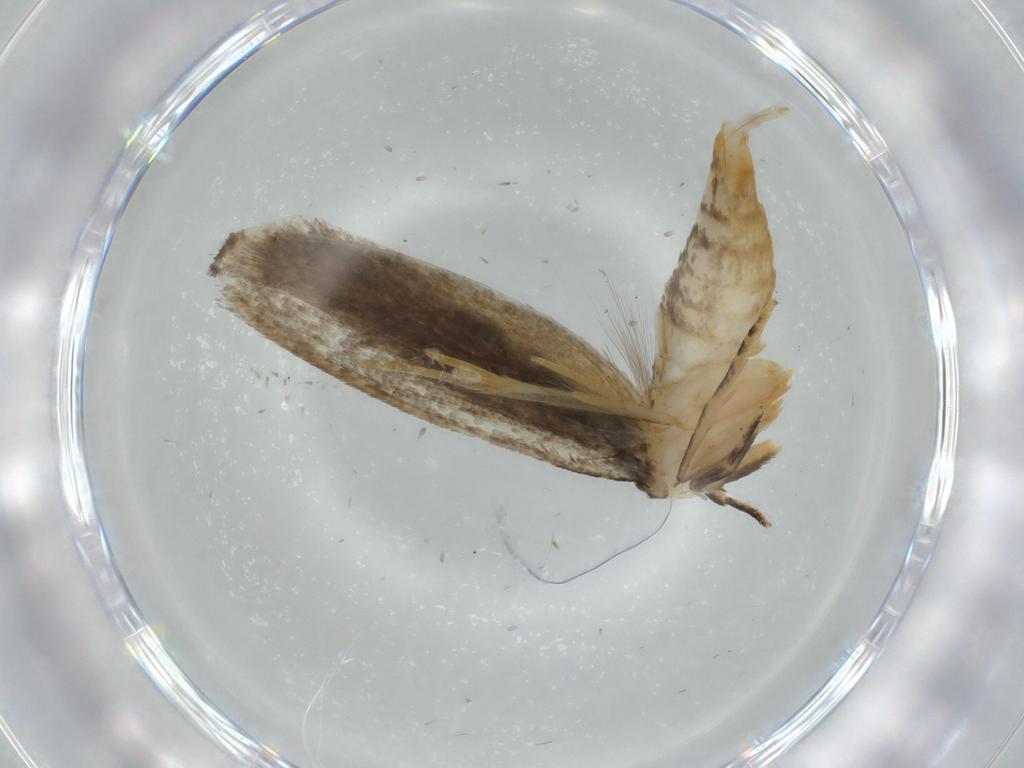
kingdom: Animalia
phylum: Arthropoda
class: Insecta
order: Lepidoptera
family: Tineidae
